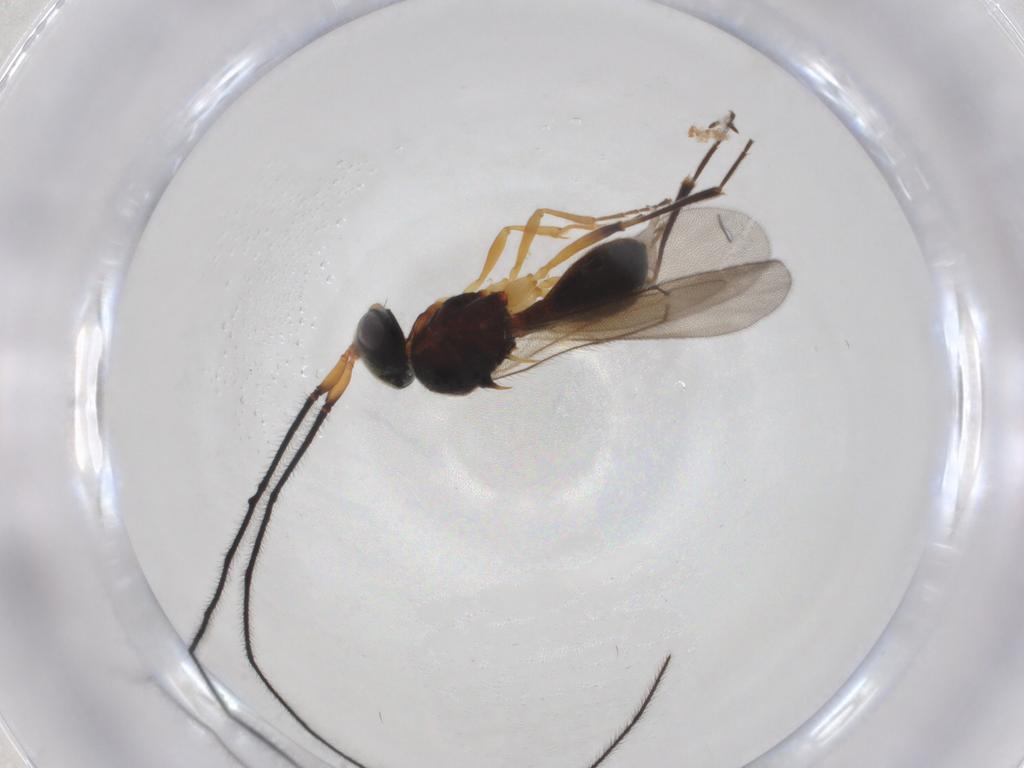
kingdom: Animalia
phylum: Arthropoda
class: Insecta
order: Hymenoptera
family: Scelionidae
